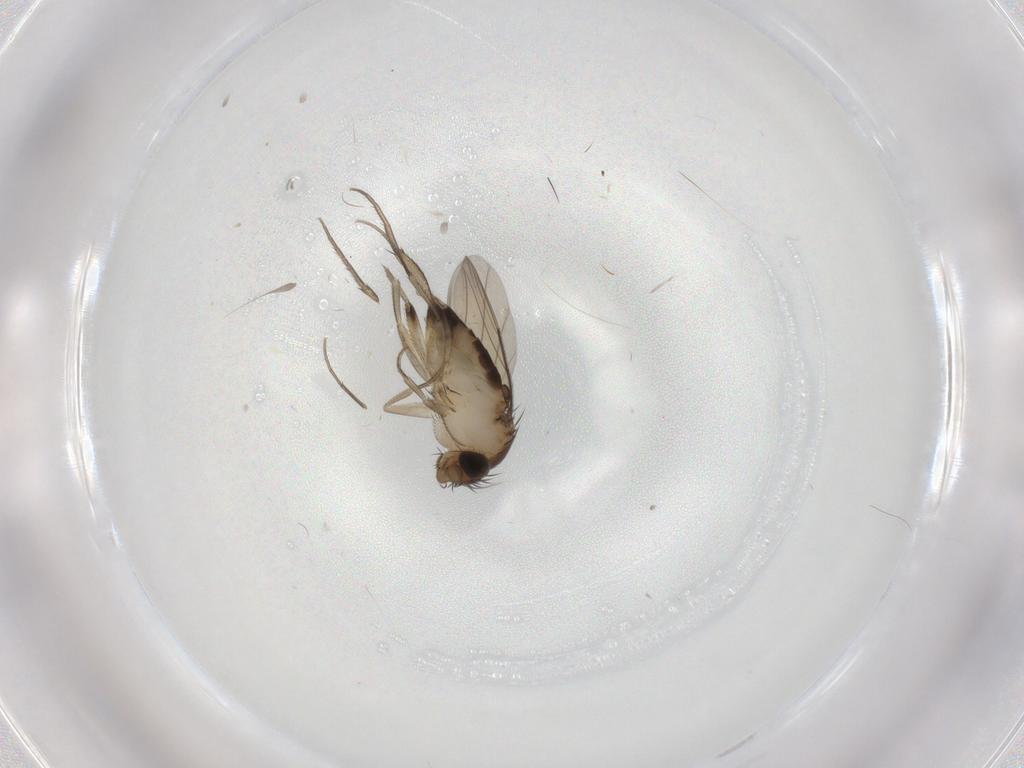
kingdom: Animalia
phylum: Arthropoda
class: Insecta
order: Diptera
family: Phoridae
